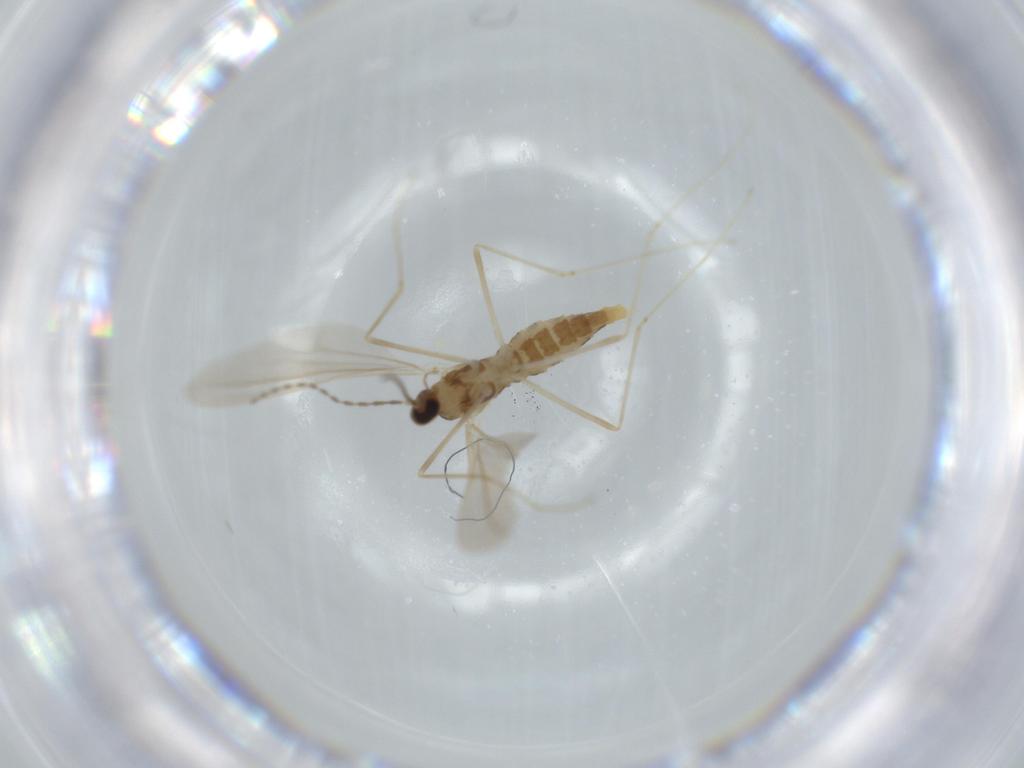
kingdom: Animalia
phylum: Arthropoda
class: Insecta
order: Diptera
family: Cecidomyiidae
